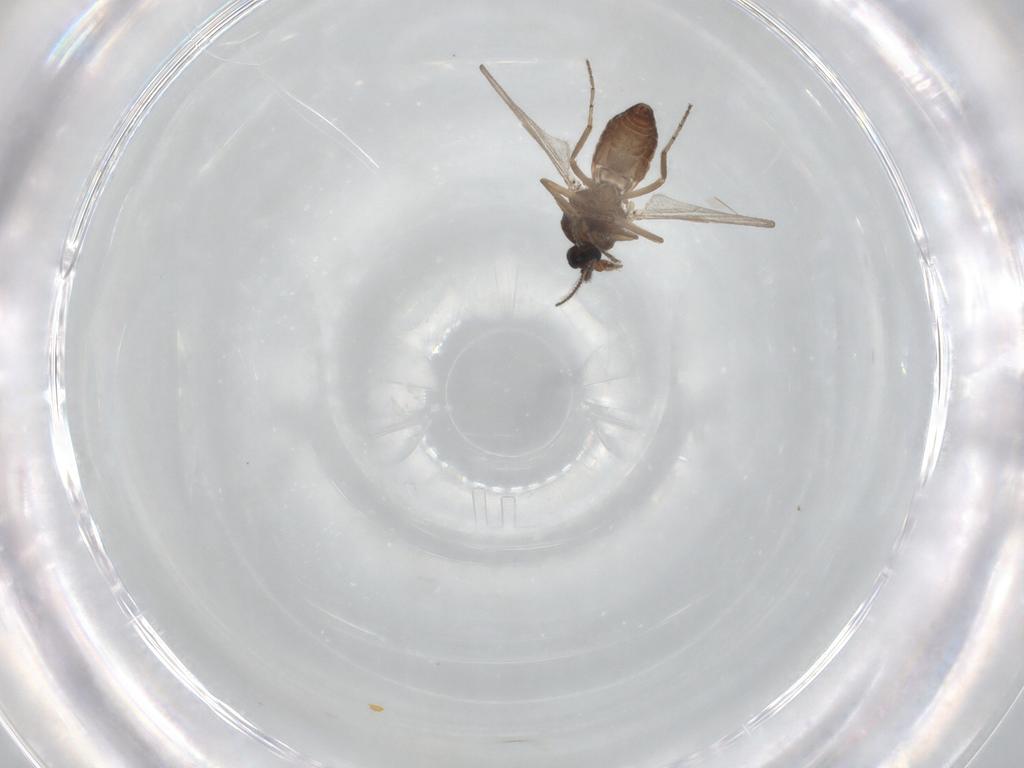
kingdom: Animalia
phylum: Arthropoda
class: Insecta
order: Diptera
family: Ceratopogonidae
